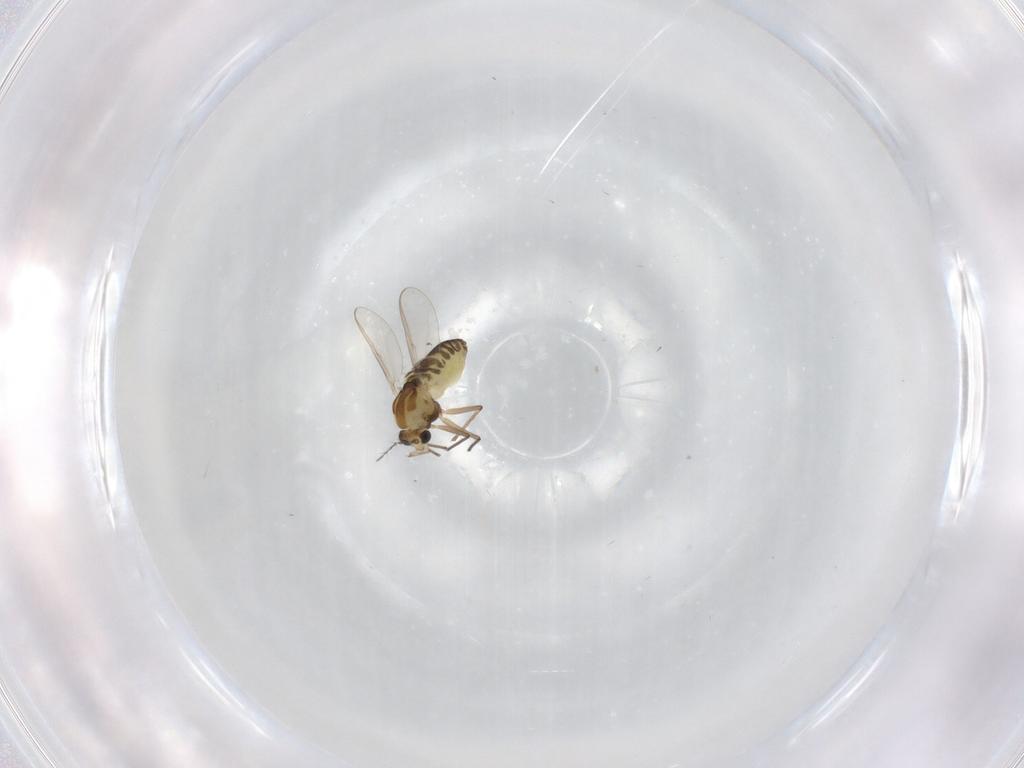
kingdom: Animalia
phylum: Arthropoda
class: Insecta
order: Diptera
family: Chironomidae
